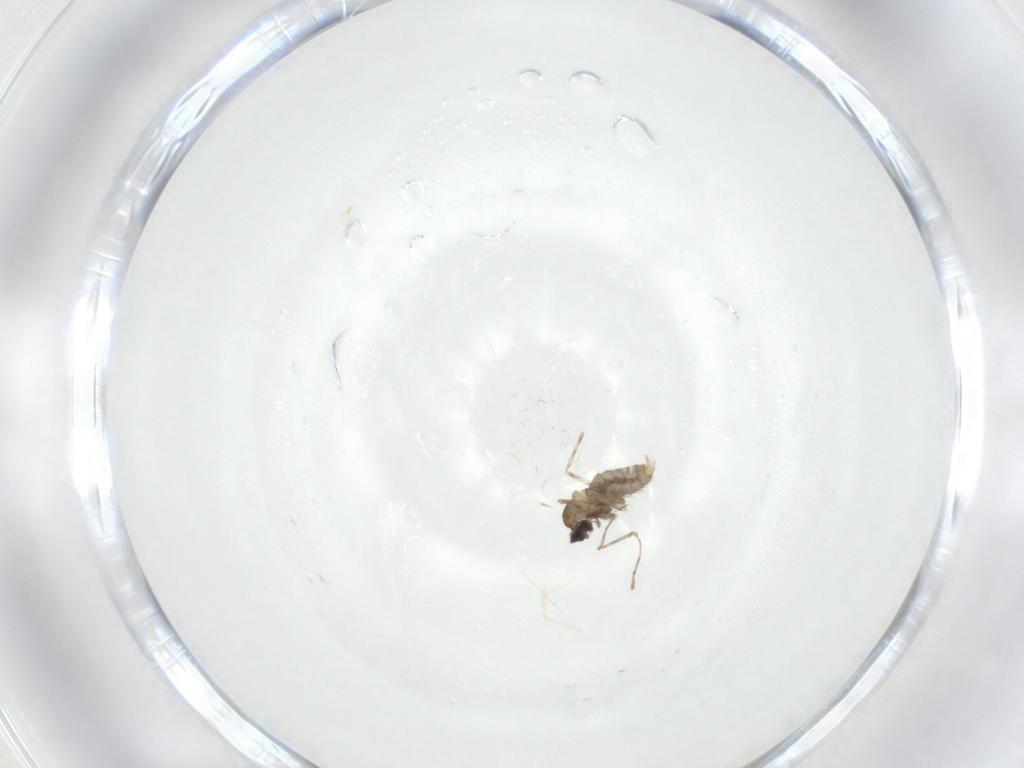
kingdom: Animalia
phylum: Arthropoda
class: Insecta
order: Diptera
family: Cecidomyiidae
